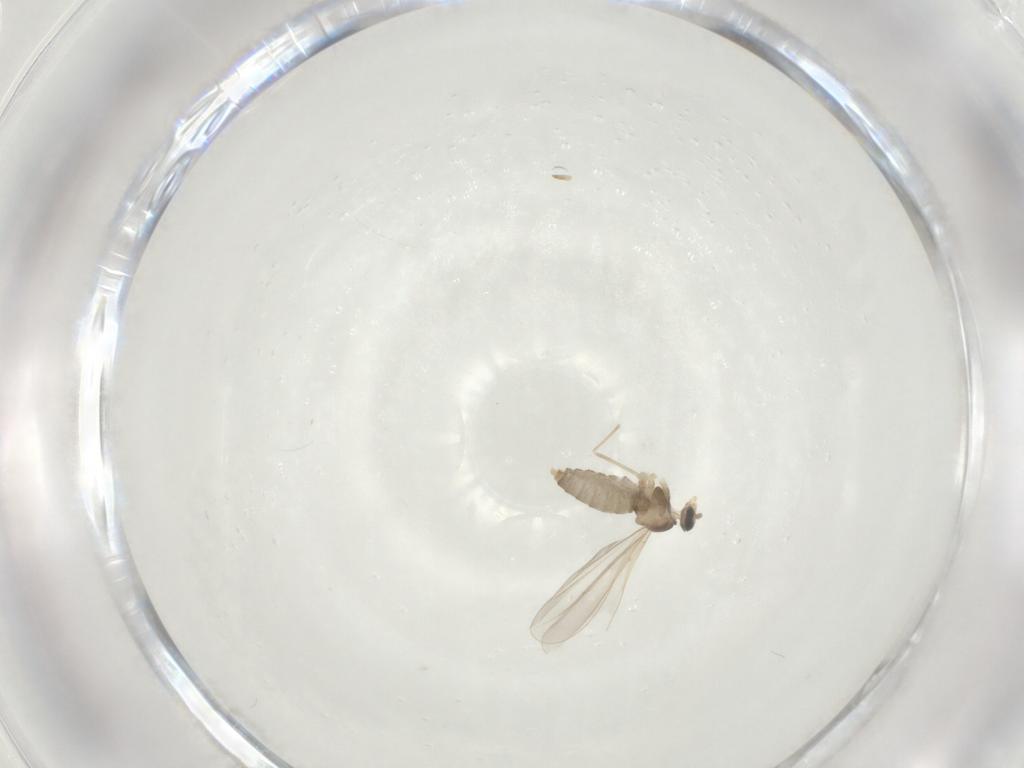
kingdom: Animalia
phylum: Arthropoda
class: Insecta
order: Diptera
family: Cecidomyiidae
